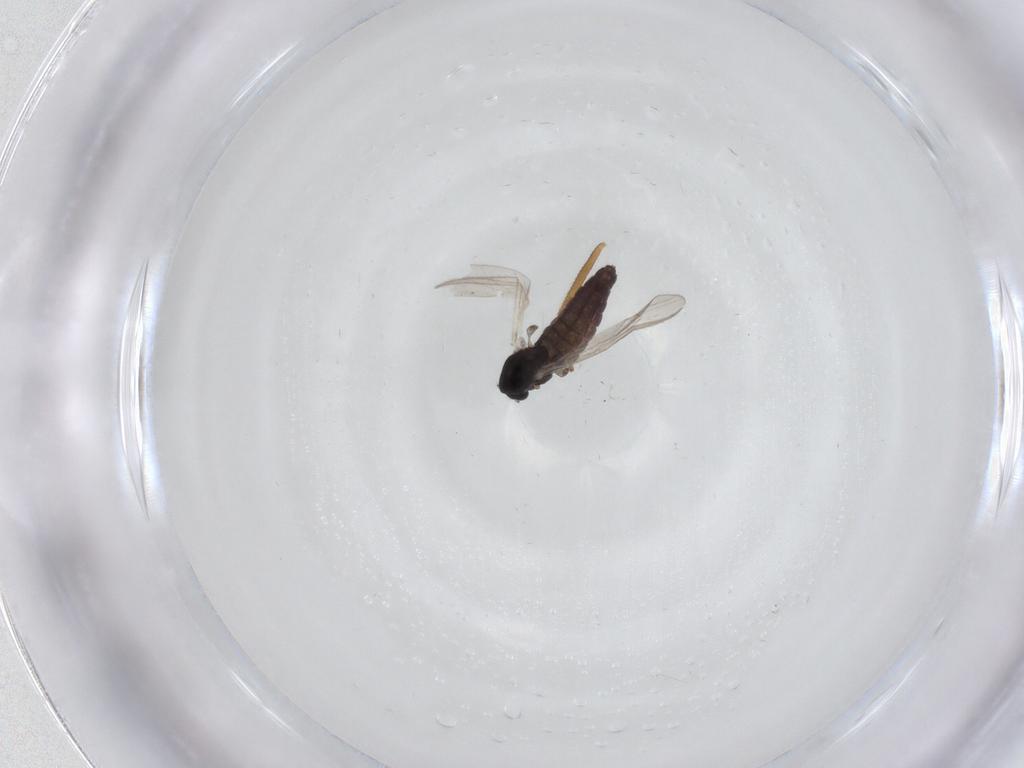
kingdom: Animalia
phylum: Arthropoda
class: Insecta
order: Diptera
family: Chironomidae
